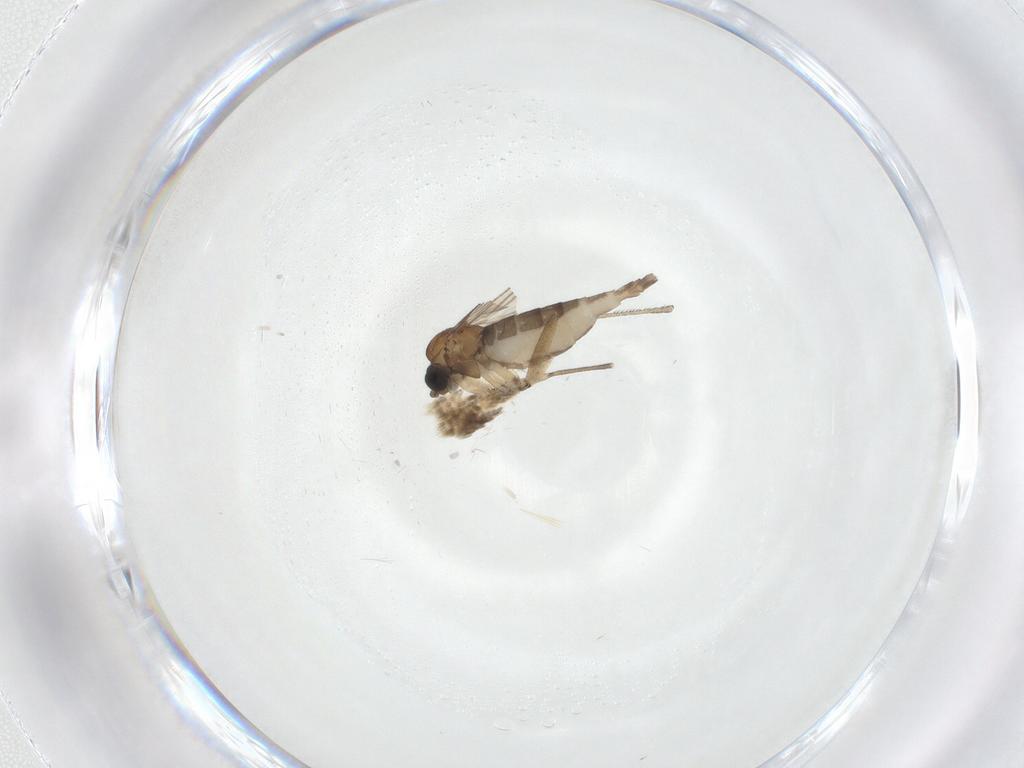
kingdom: Animalia
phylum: Arthropoda
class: Insecta
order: Diptera
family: Sciaridae
